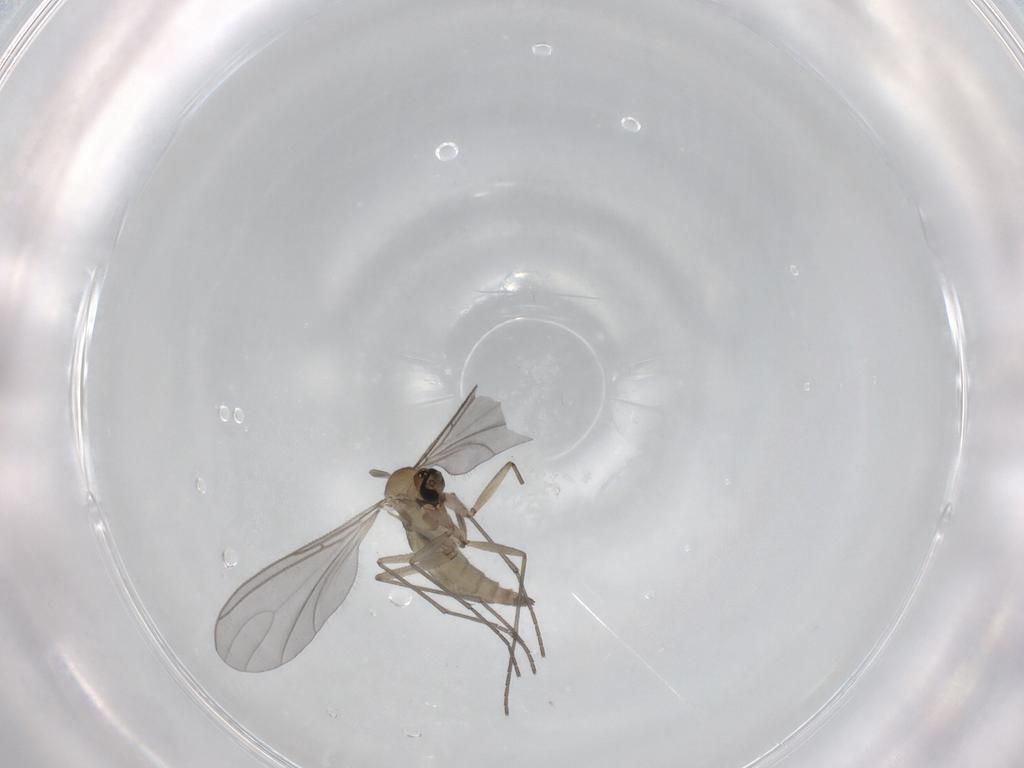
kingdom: Animalia
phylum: Arthropoda
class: Insecta
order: Diptera
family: Sciaridae
